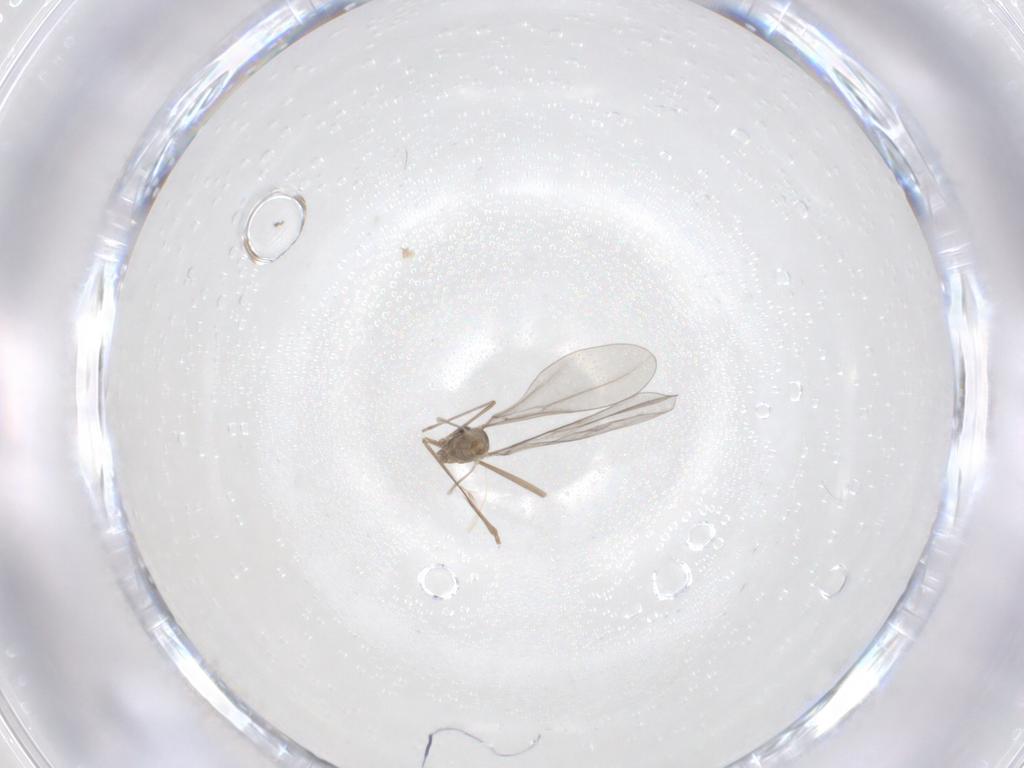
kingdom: Animalia
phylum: Arthropoda
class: Insecta
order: Diptera
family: Cecidomyiidae
